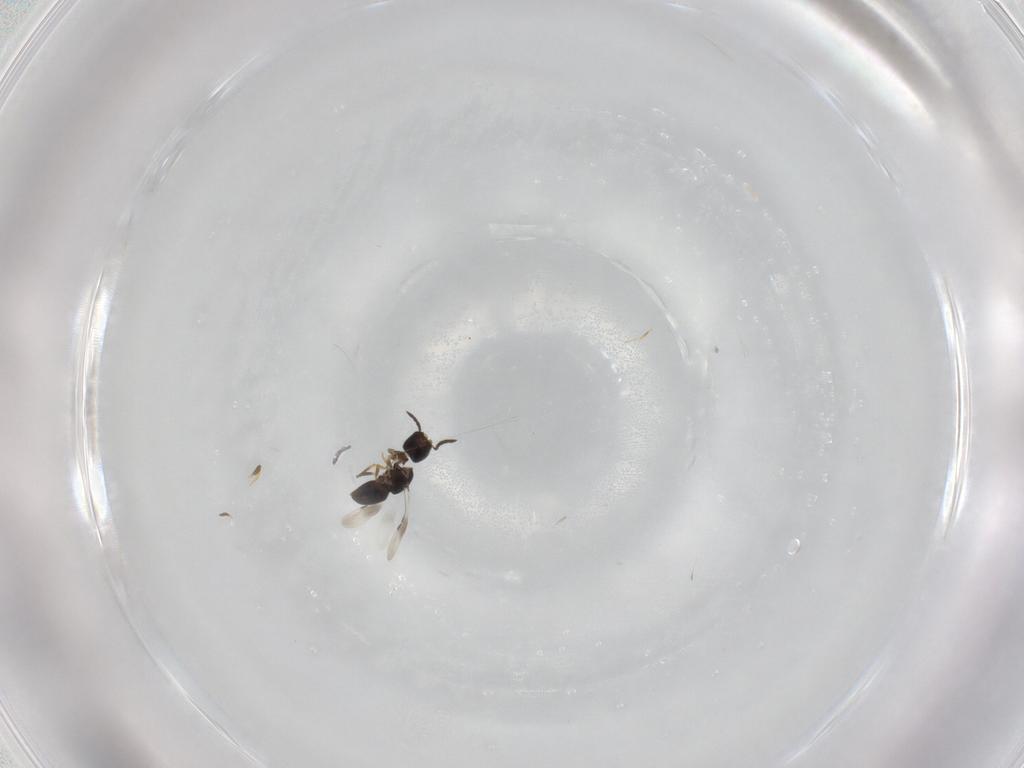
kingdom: Animalia
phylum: Arthropoda
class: Insecta
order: Hymenoptera
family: Ceraphronidae
